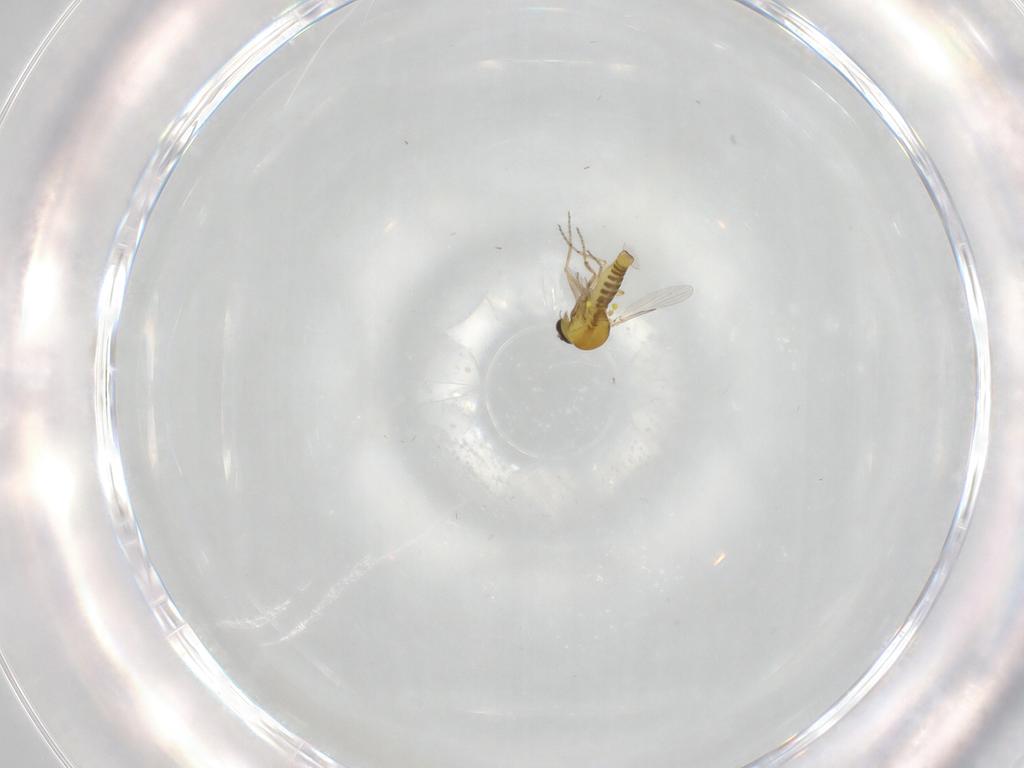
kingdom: Animalia
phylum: Arthropoda
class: Insecta
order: Diptera
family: Ceratopogonidae
